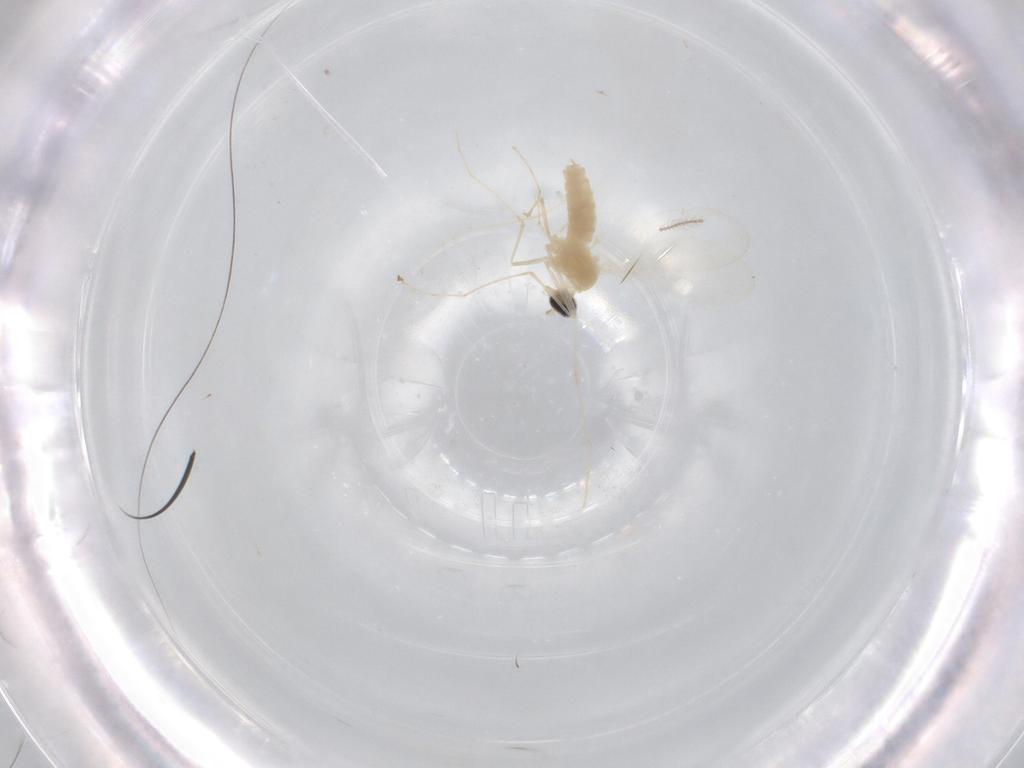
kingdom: Animalia
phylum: Arthropoda
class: Insecta
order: Diptera
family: Cecidomyiidae
